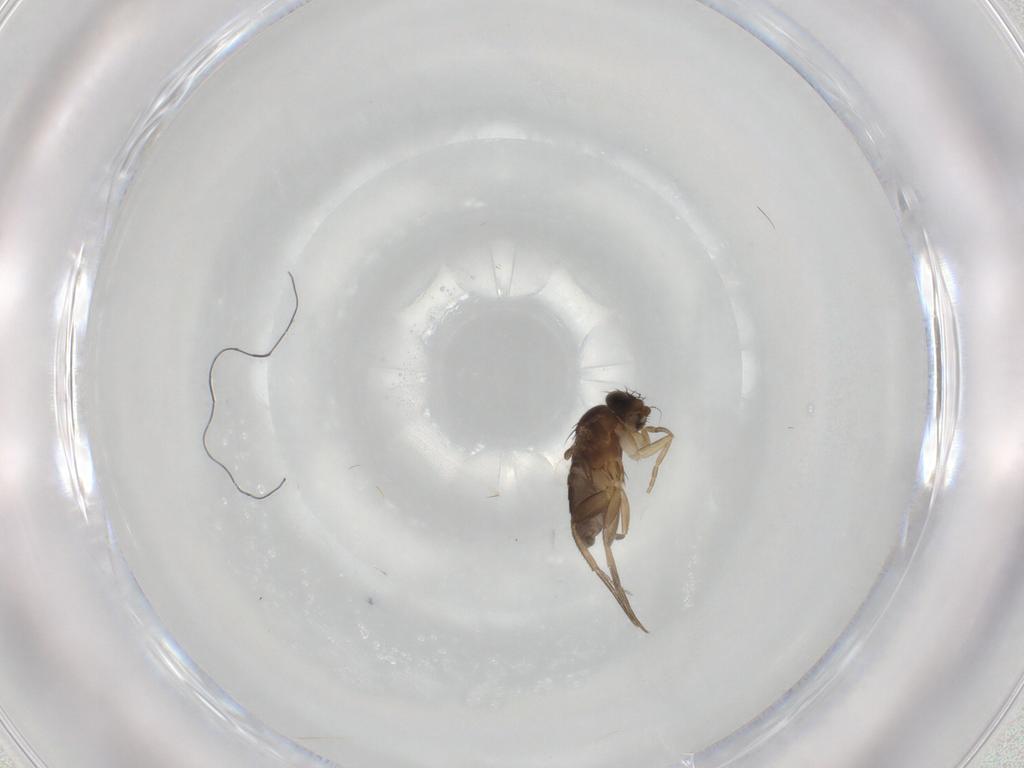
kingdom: Animalia
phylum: Arthropoda
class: Insecta
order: Diptera
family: Phoridae
